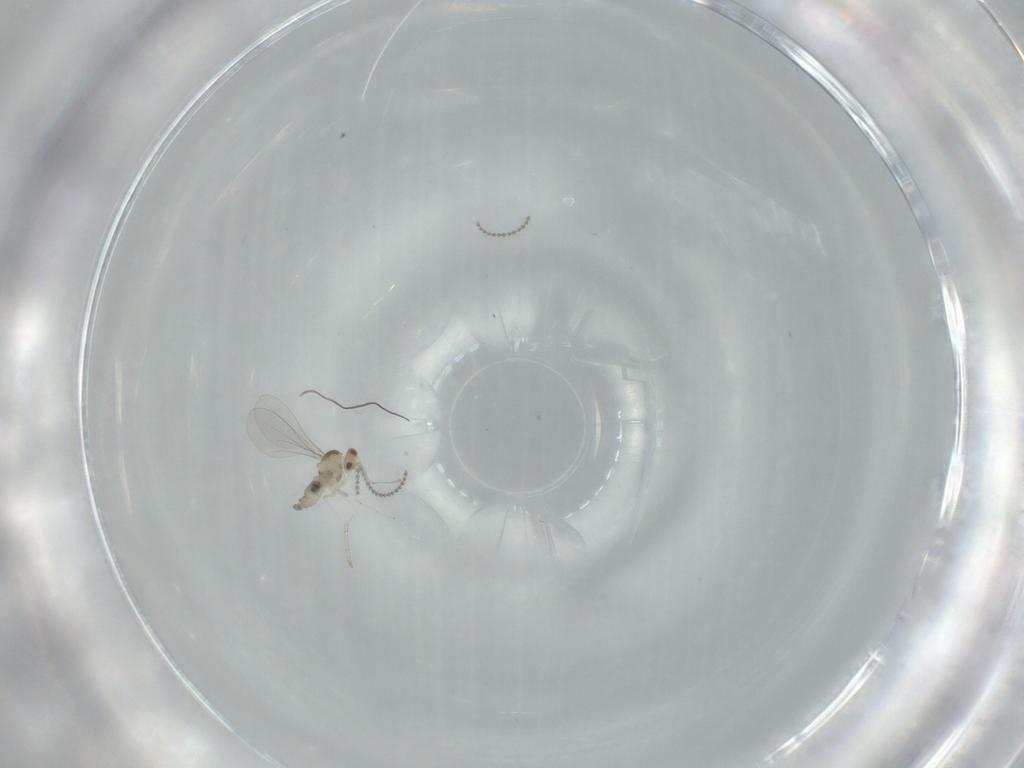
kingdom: Animalia
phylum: Arthropoda
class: Insecta
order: Diptera
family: Cecidomyiidae
